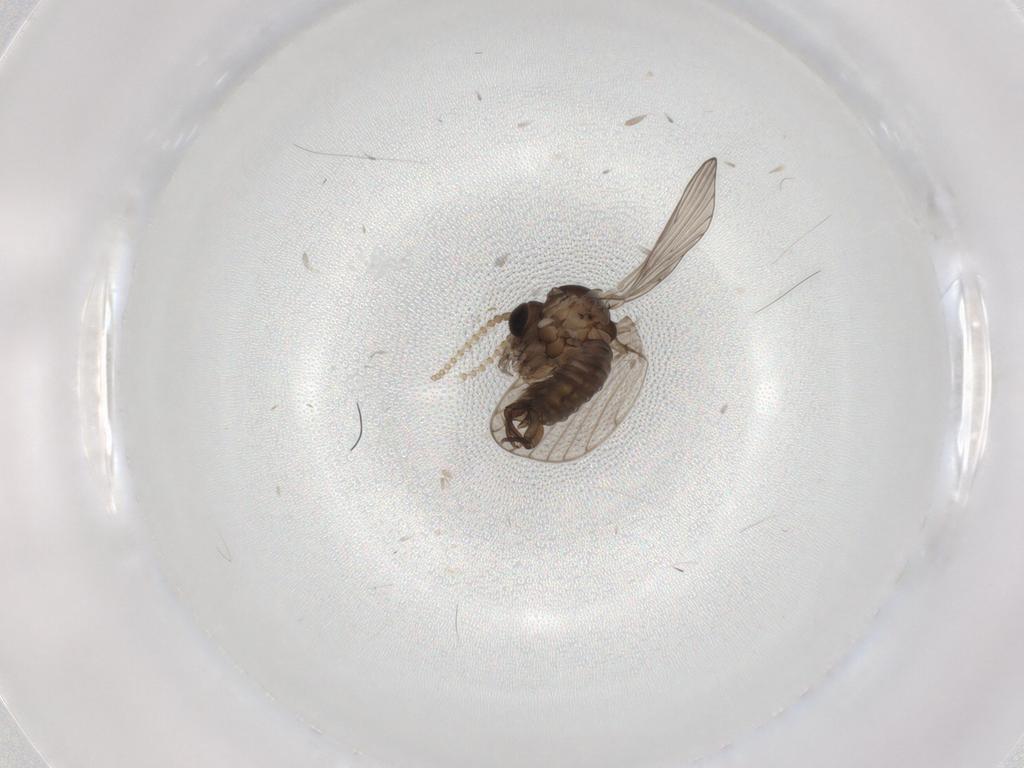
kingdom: Animalia
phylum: Arthropoda
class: Insecta
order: Diptera
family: Psychodidae
